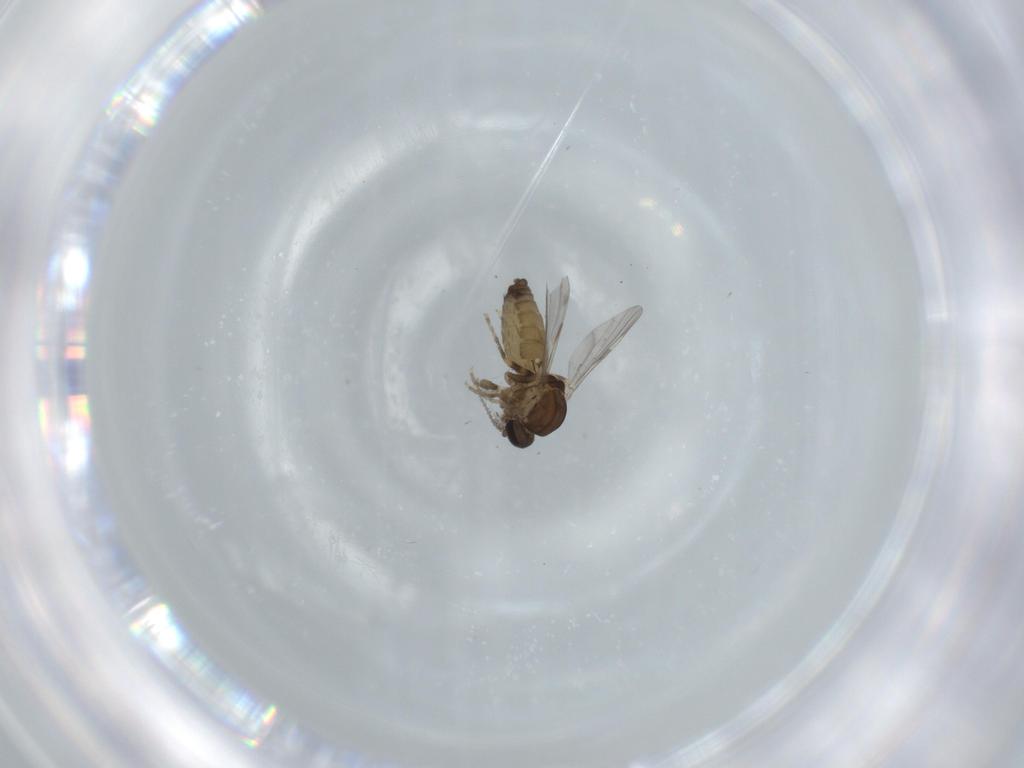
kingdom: Animalia
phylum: Arthropoda
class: Insecta
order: Diptera
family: Ceratopogonidae
